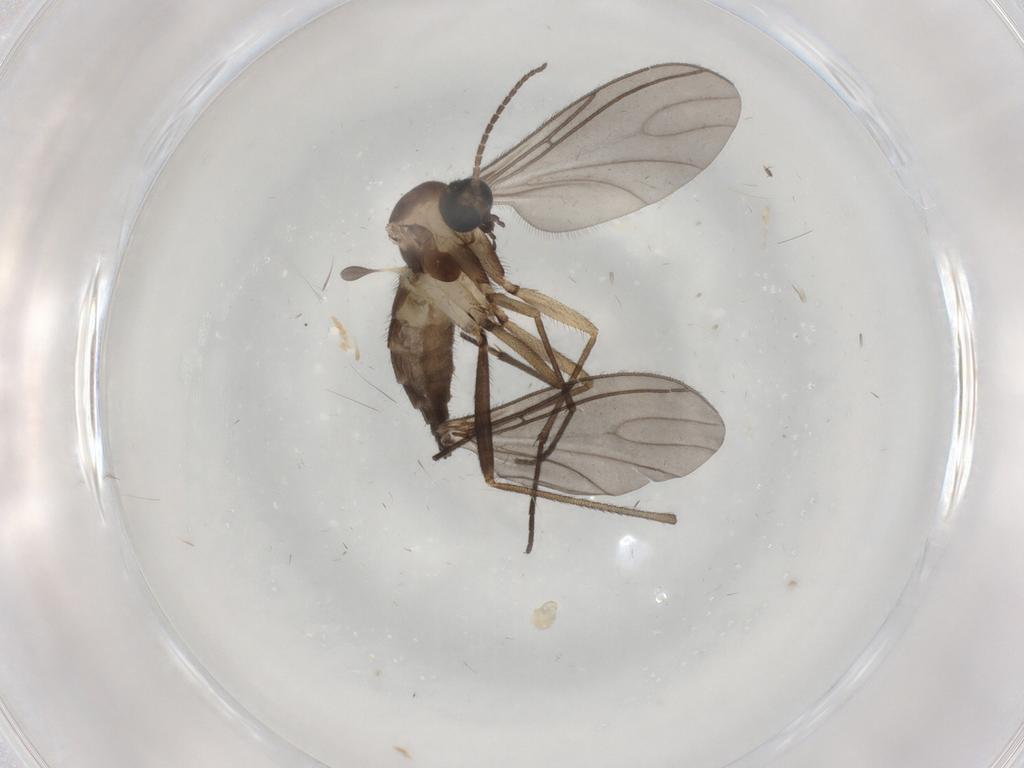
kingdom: Animalia
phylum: Arthropoda
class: Insecta
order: Diptera
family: Sciaridae
